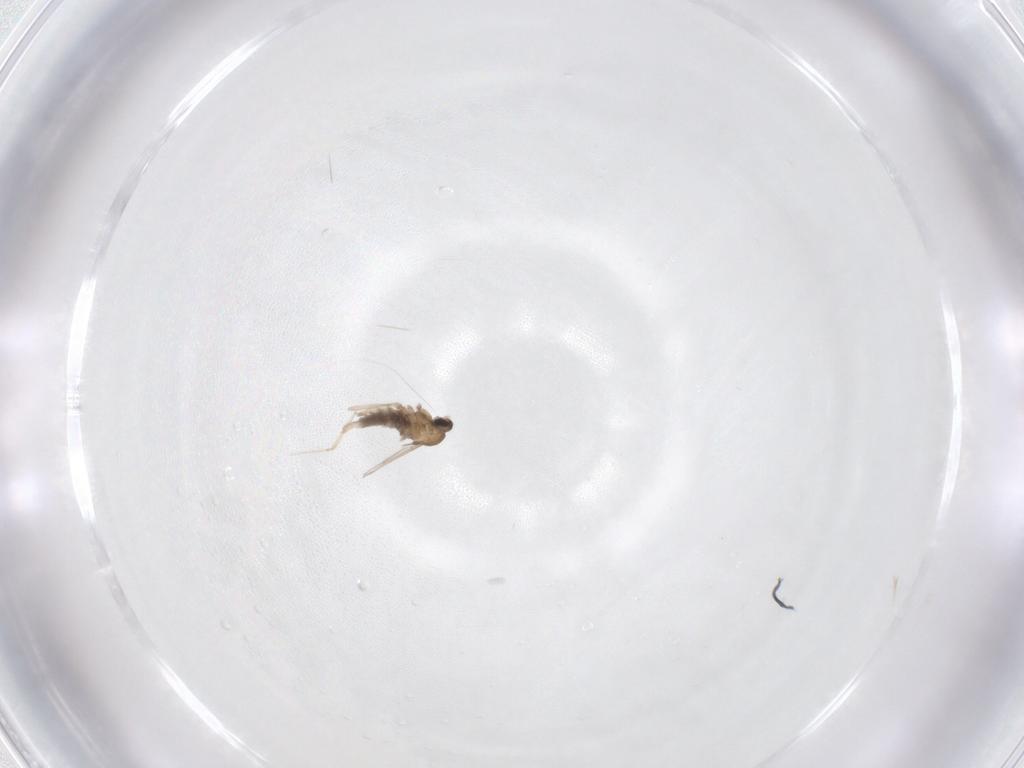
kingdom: Animalia
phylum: Arthropoda
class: Insecta
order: Diptera
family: Cecidomyiidae
